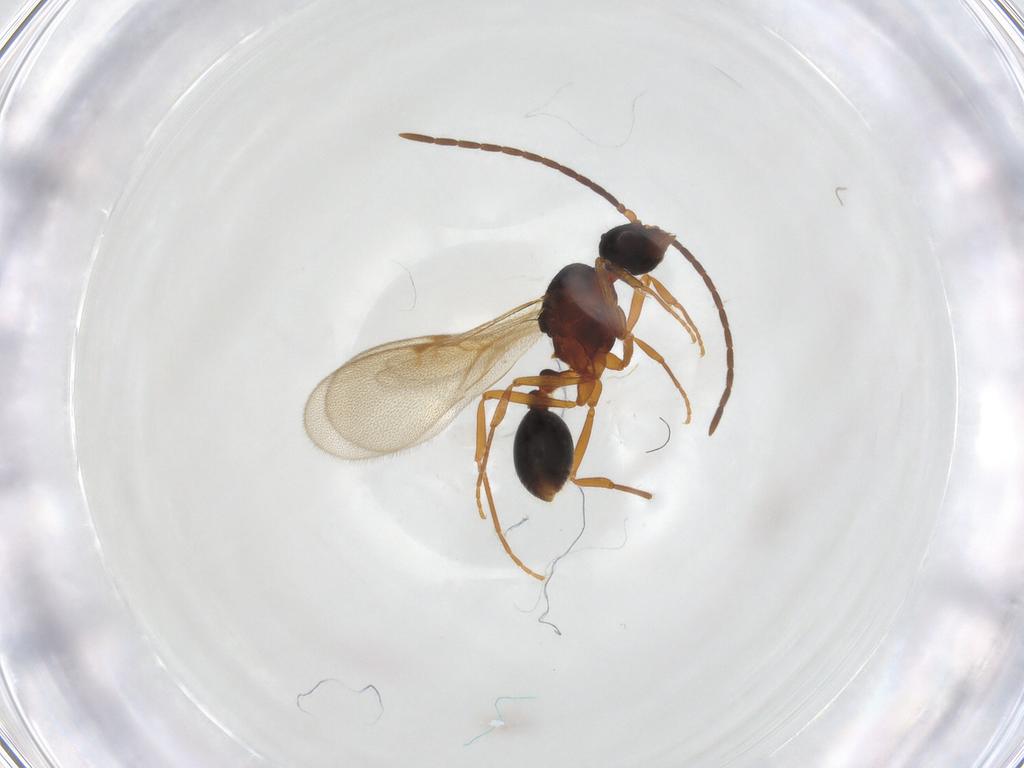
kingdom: Animalia
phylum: Arthropoda
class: Insecta
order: Hymenoptera
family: Formicidae
